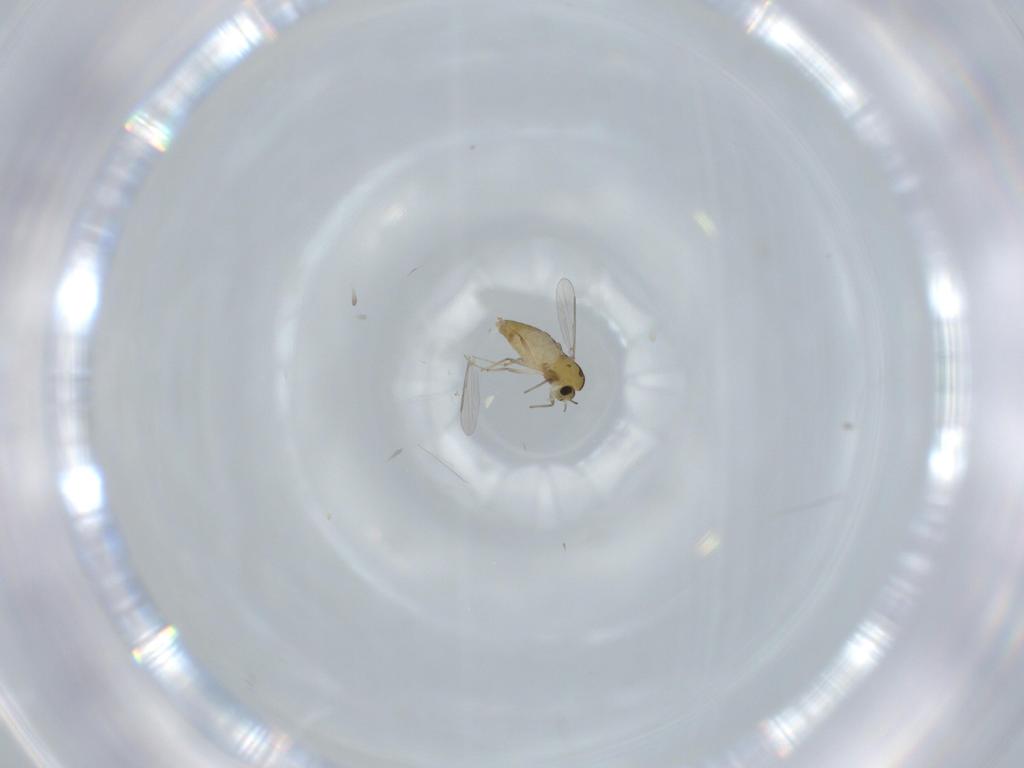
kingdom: Animalia
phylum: Arthropoda
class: Insecta
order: Diptera
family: Chironomidae
